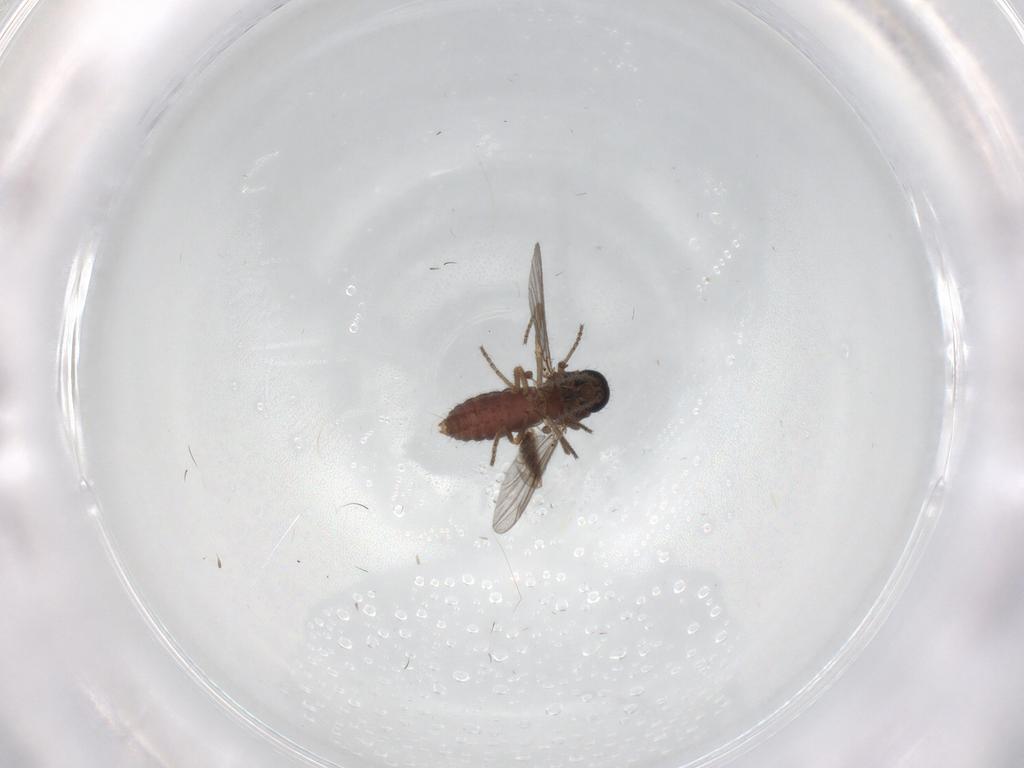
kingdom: Animalia
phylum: Arthropoda
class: Insecta
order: Diptera
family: Ceratopogonidae
